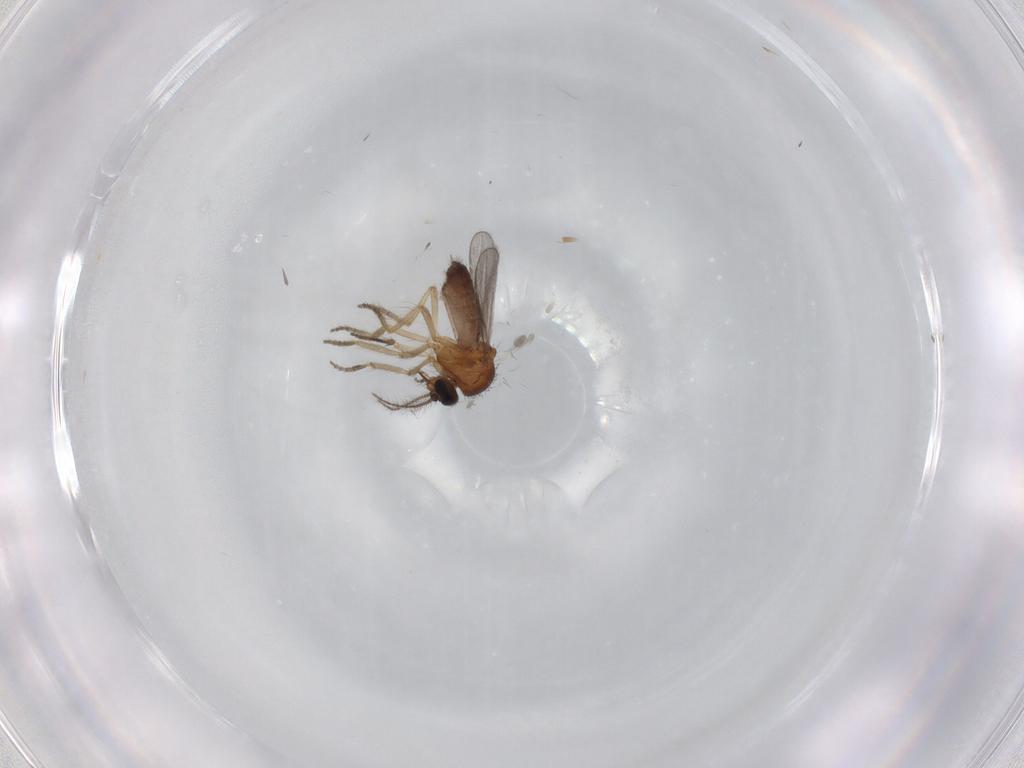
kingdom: Animalia
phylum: Arthropoda
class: Insecta
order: Diptera
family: Ceratopogonidae
